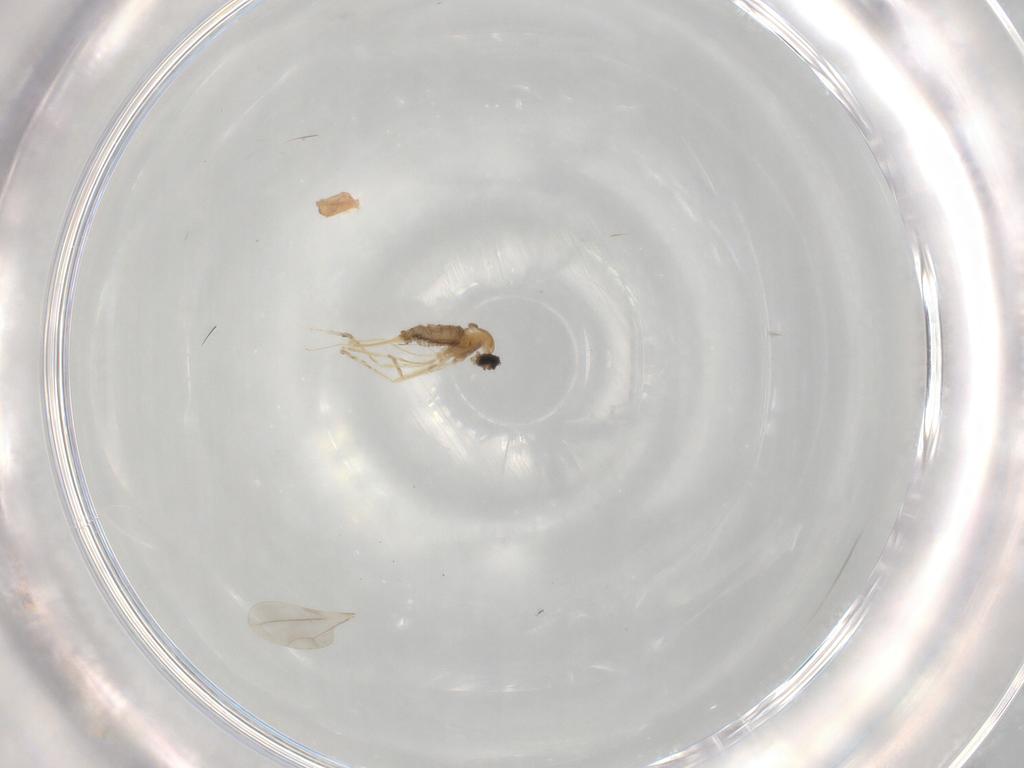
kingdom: Animalia
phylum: Arthropoda
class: Insecta
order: Diptera
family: Cecidomyiidae
